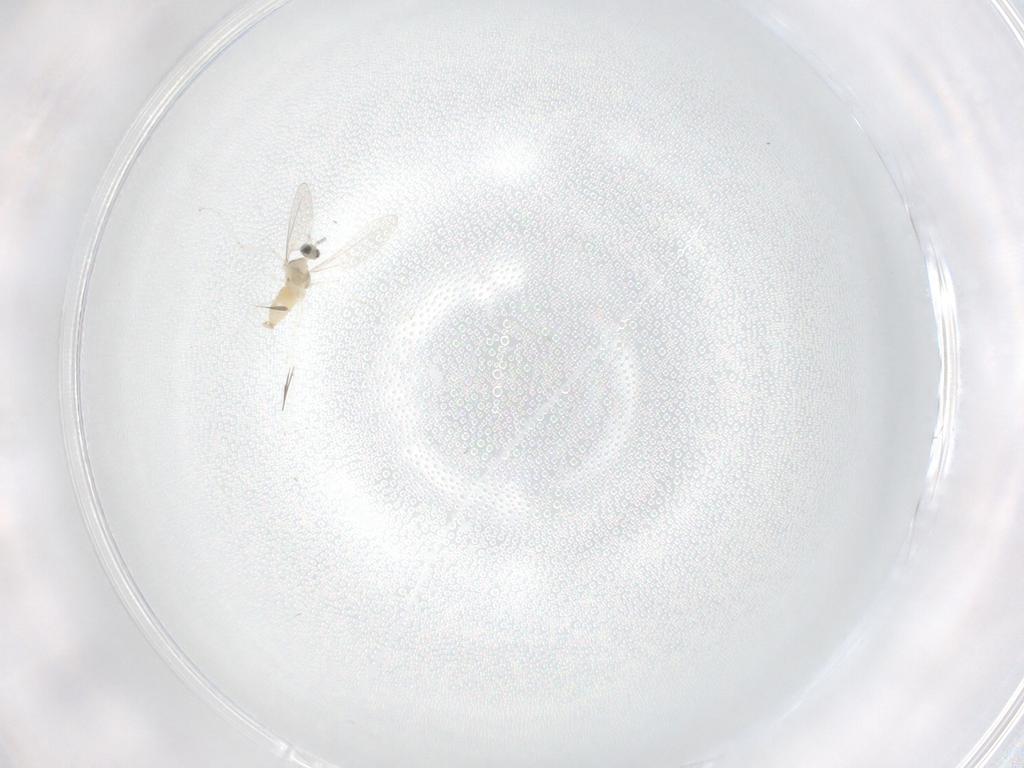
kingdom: Animalia
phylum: Arthropoda
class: Insecta
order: Diptera
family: Cecidomyiidae
